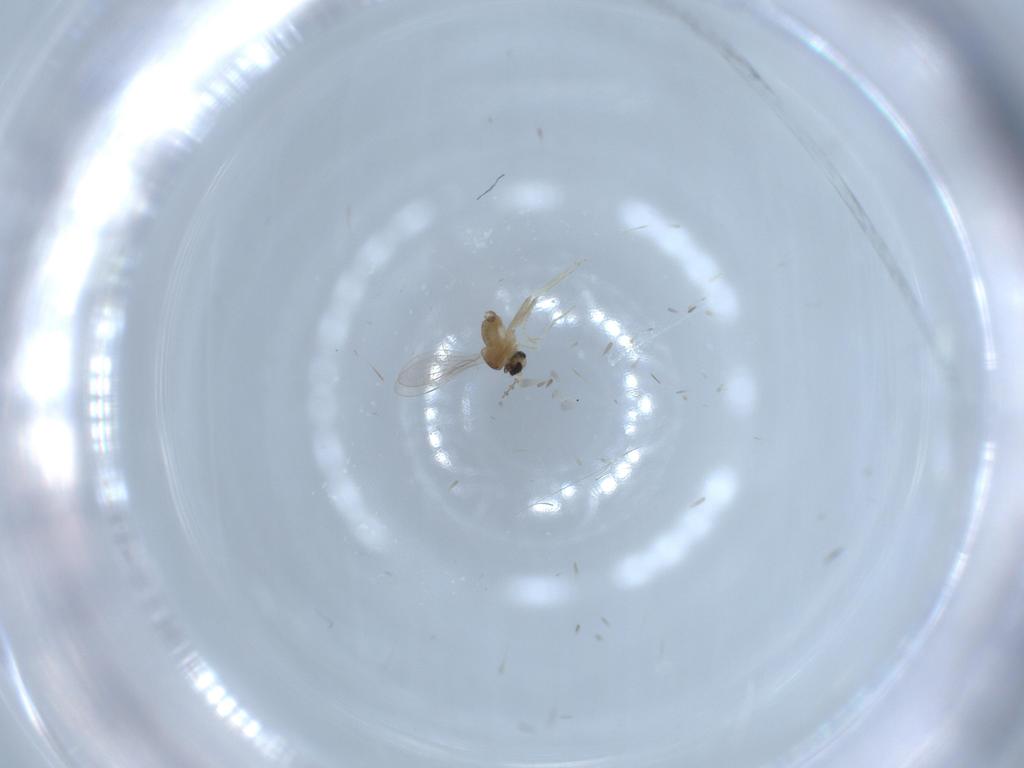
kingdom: Animalia
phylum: Arthropoda
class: Insecta
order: Diptera
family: Cecidomyiidae
